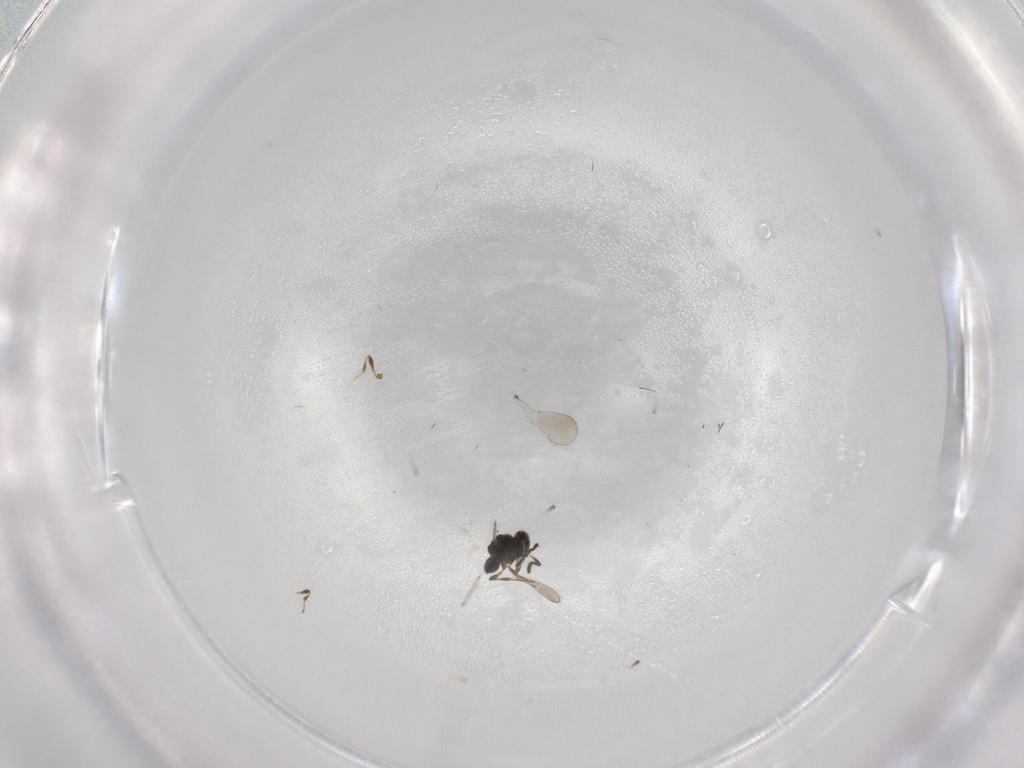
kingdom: Animalia
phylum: Arthropoda
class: Insecta
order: Hymenoptera
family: Platygastridae
